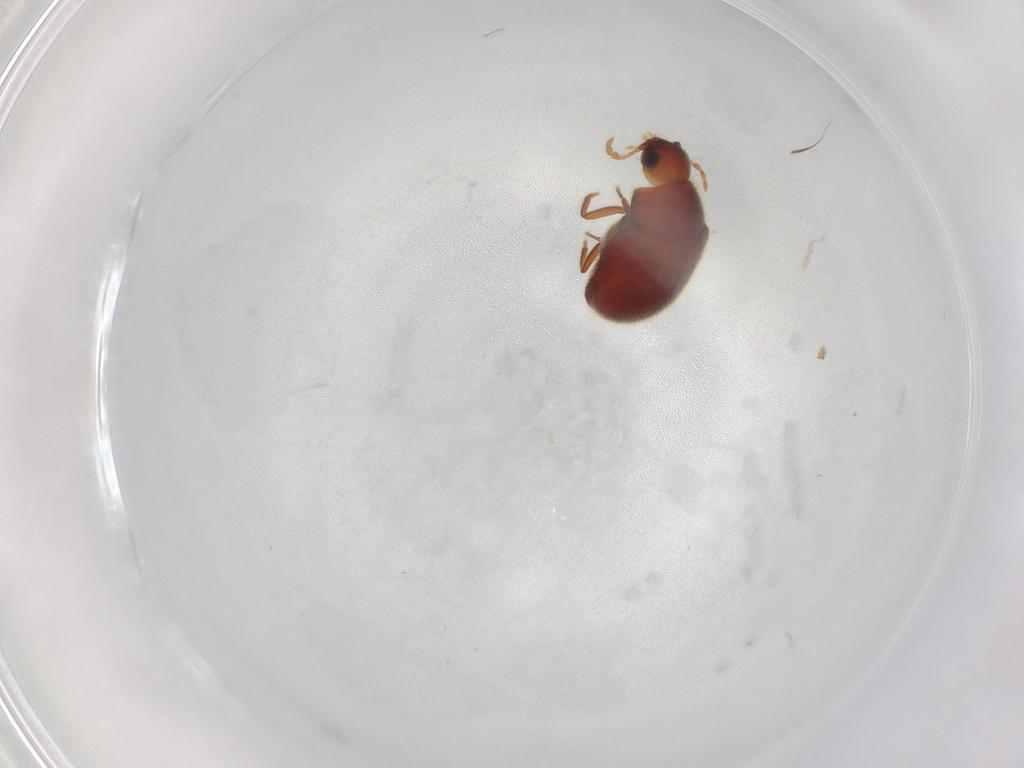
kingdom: Animalia
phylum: Arthropoda
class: Insecta
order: Coleoptera
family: Ptinidae
